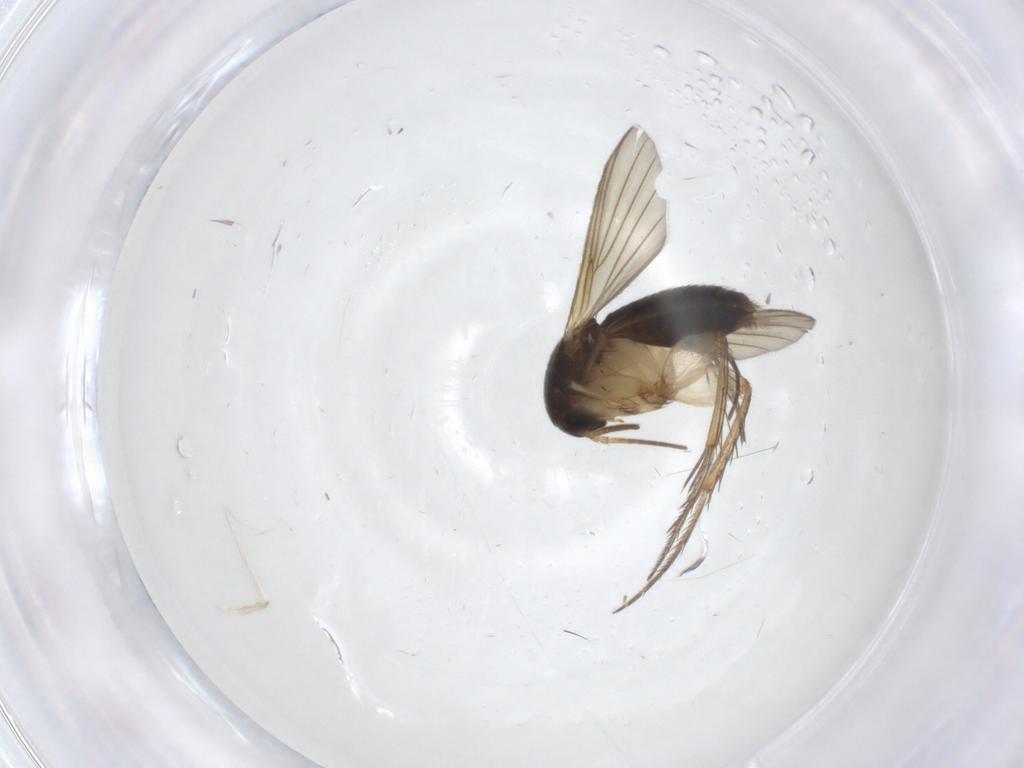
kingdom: Animalia
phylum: Arthropoda
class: Insecta
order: Diptera
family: Mycetophilidae
